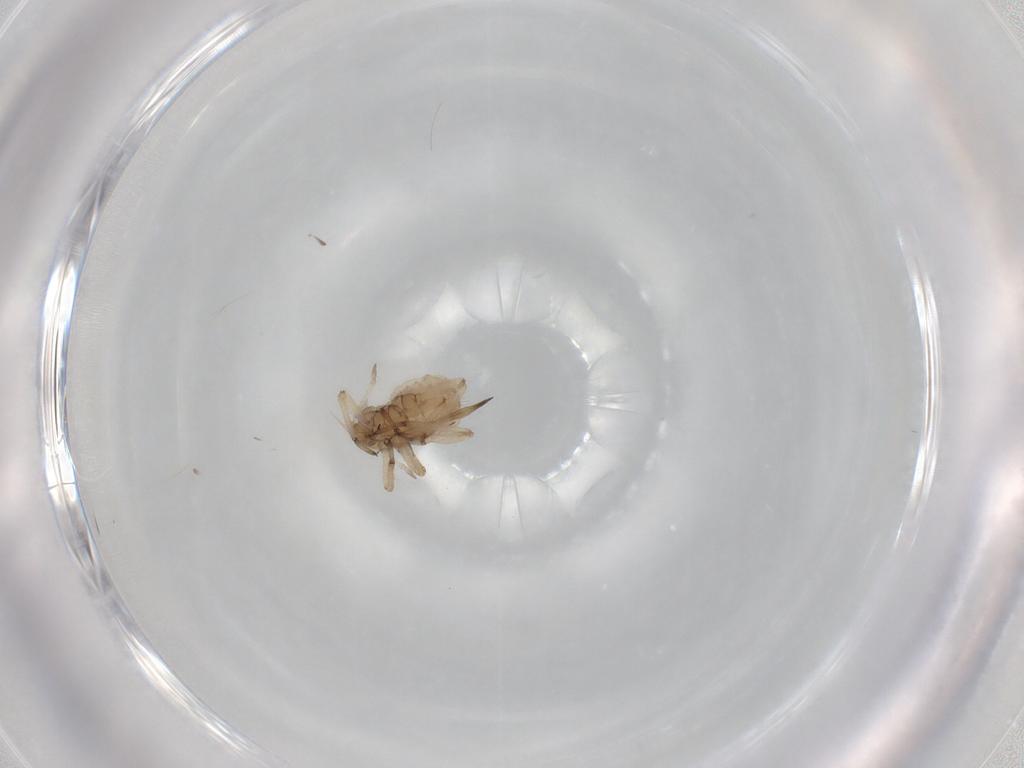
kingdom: Animalia
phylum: Arthropoda
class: Insecta
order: Hemiptera
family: Aphididae
